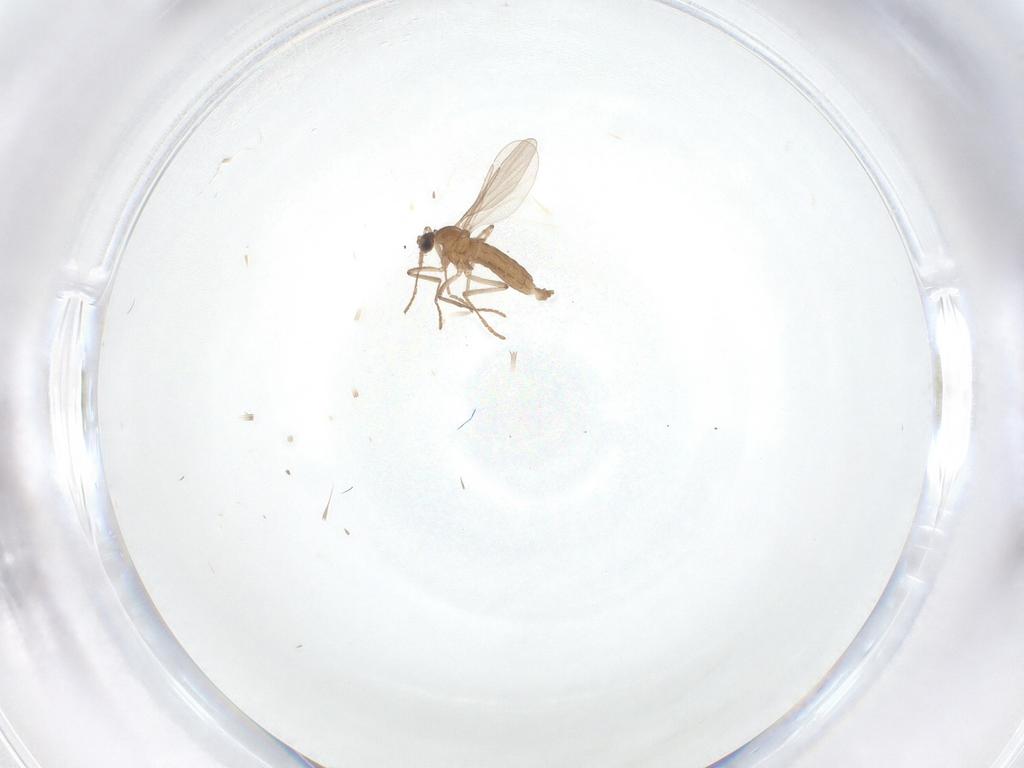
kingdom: Animalia
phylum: Arthropoda
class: Insecta
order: Diptera
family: Cecidomyiidae
